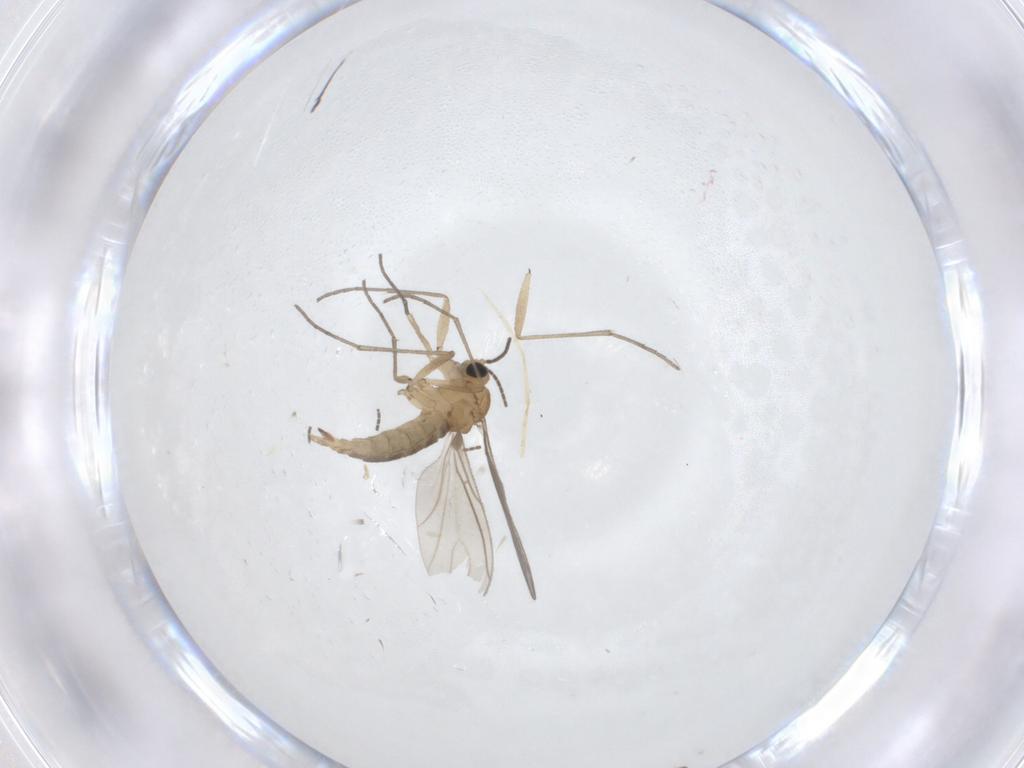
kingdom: Animalia
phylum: Arthropoda
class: Insecta
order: Diptera
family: Sciaridae
